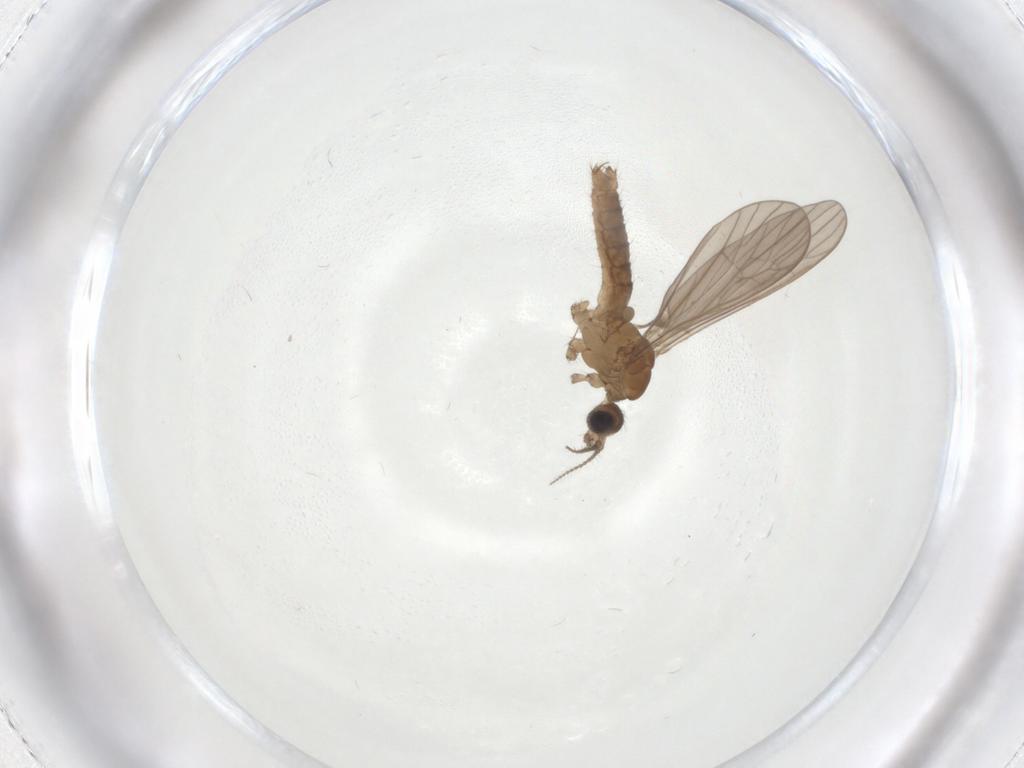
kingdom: Animalia
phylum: Arthropoda
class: Insecta
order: Diptera
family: Limoniidae
